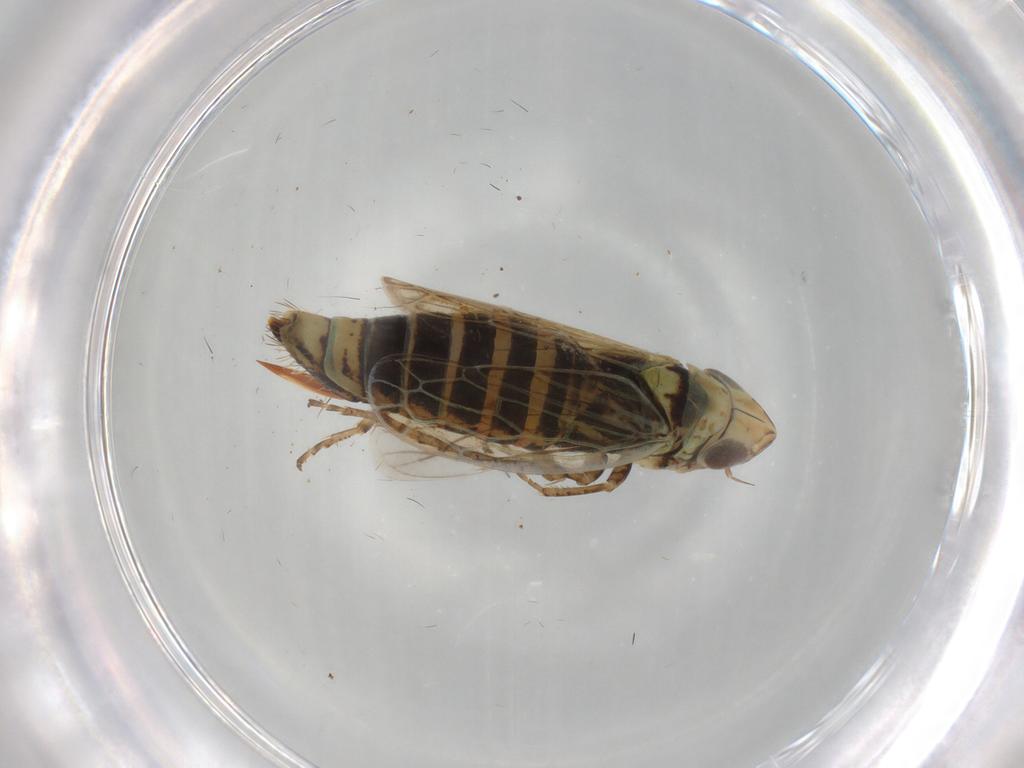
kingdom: Animalia
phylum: Arthropoda
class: Insecta
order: Hemiptera
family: Cicadellidae
